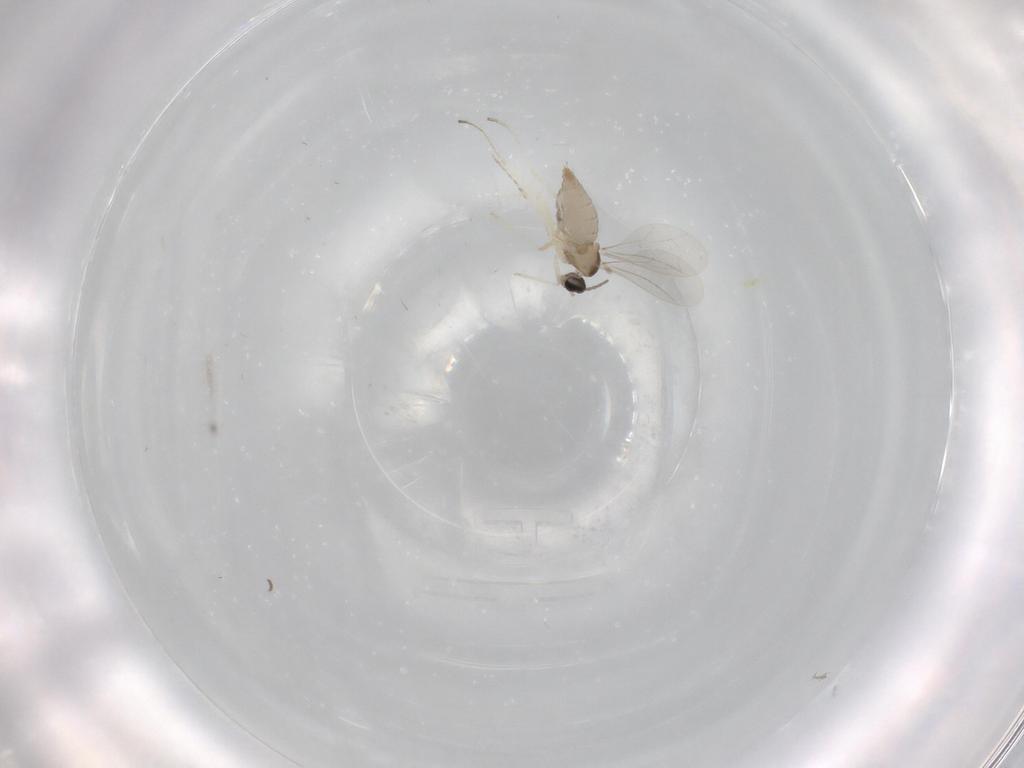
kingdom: Animalia
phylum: Arthropoda
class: Insecta
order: Diptera
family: Cecidomyiidae
